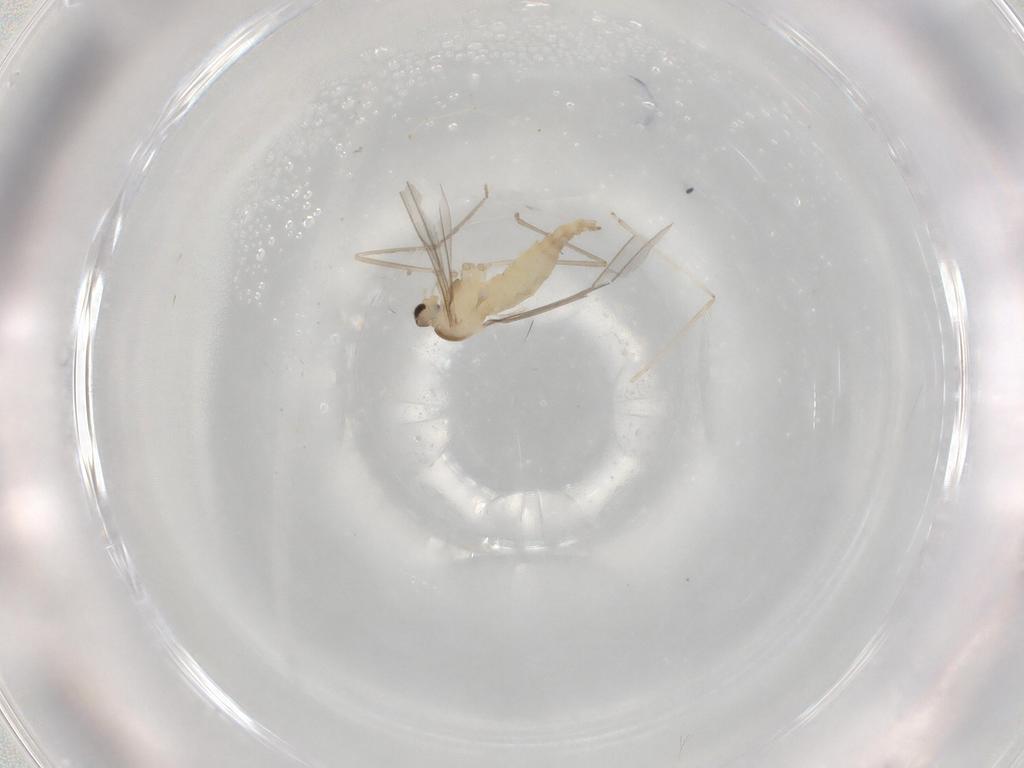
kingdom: Animalia
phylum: Arthropoda
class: Insecta
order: Diptera
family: Cecidomyiidae
